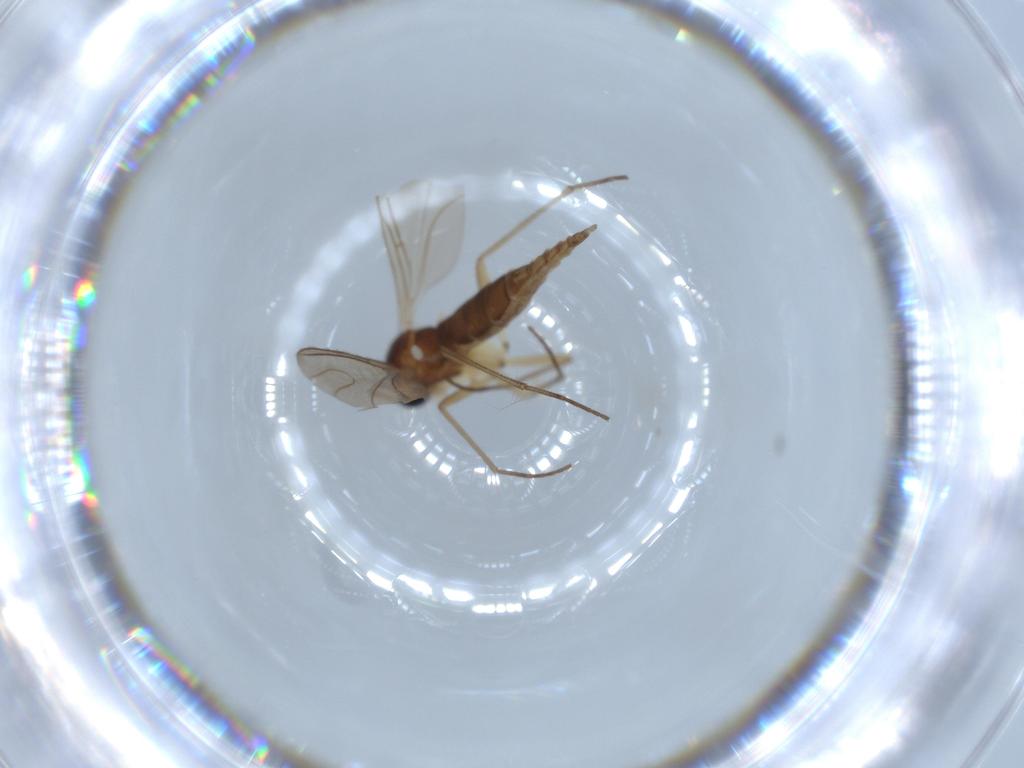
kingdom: Animalia
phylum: Arthropoda
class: Insecta
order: Diptera
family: Sciaridae
